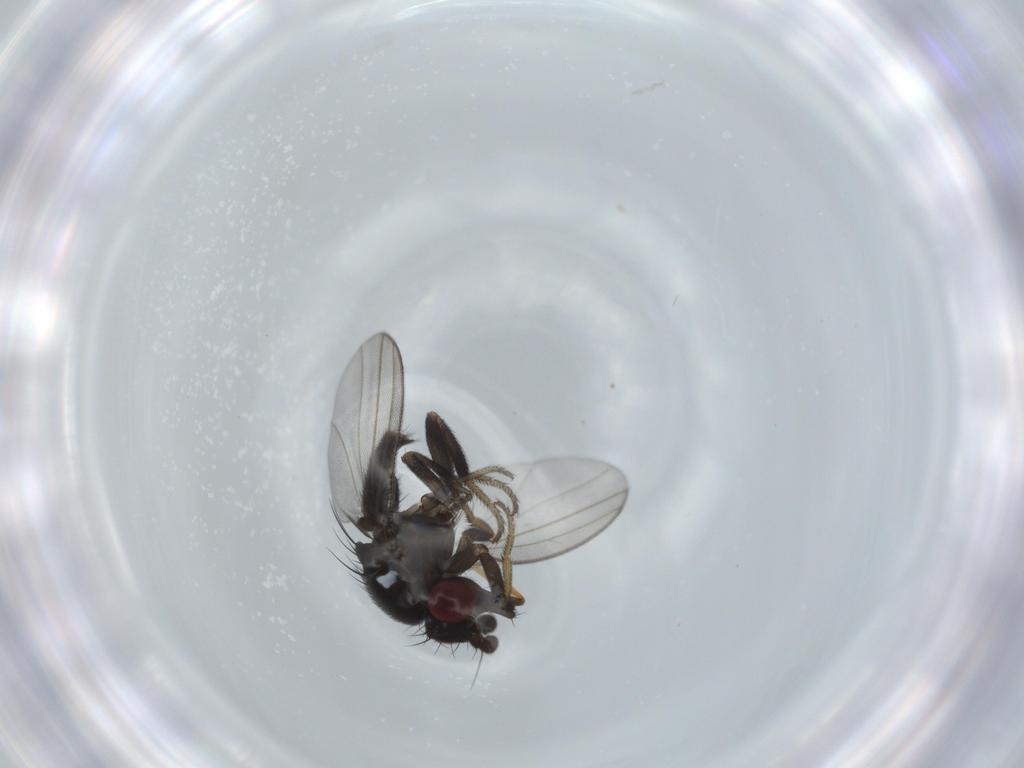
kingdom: Animalia
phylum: Arthropoda
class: Insecta
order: Diptera
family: Milichiidae
